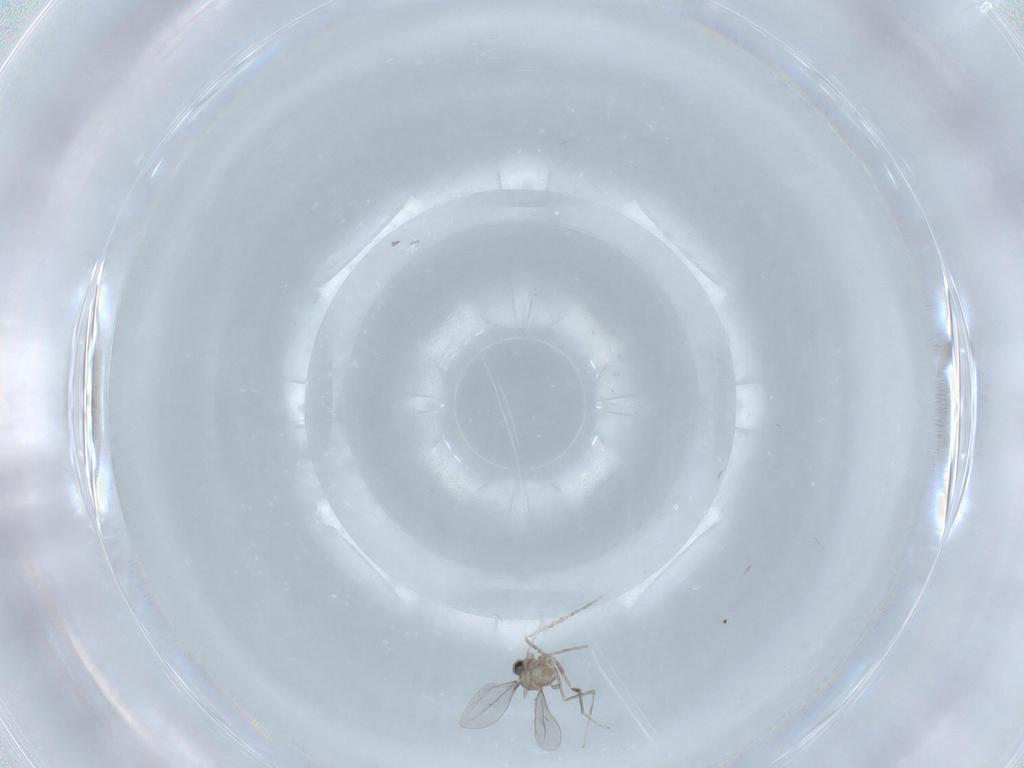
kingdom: Animalia
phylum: Arthropoda
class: Insecta
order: Diptera
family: Cecidomyiidae
